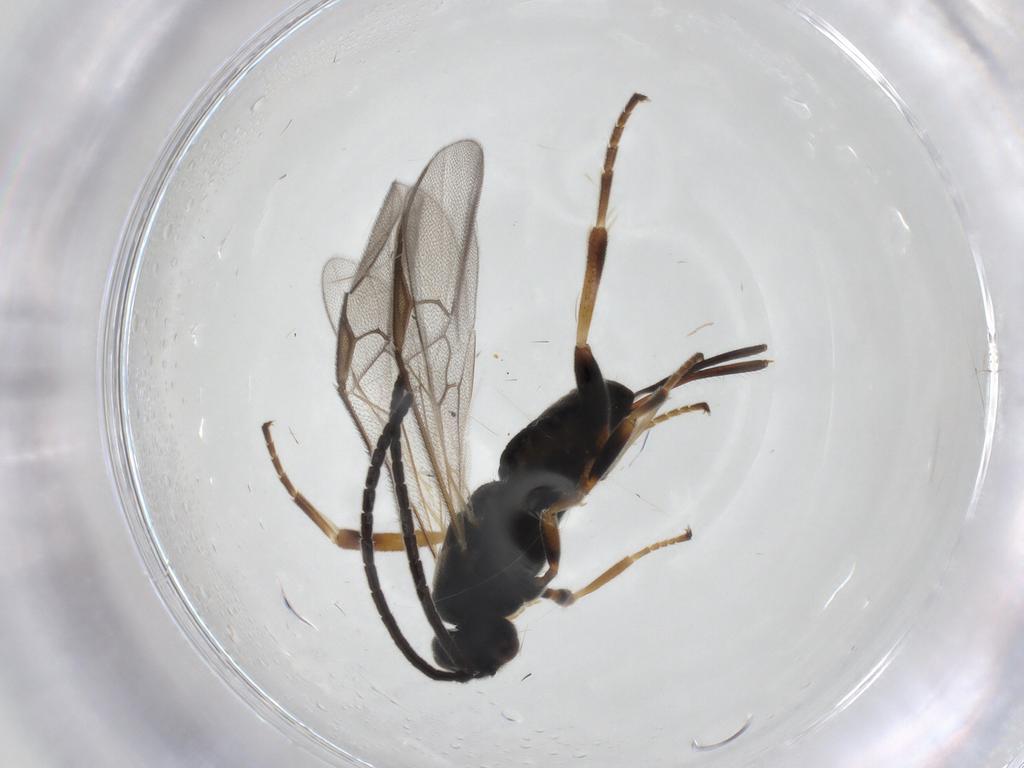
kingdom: Animalia
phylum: Arthropoda
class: Insecta
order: Hymenoptera
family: Braconidae
